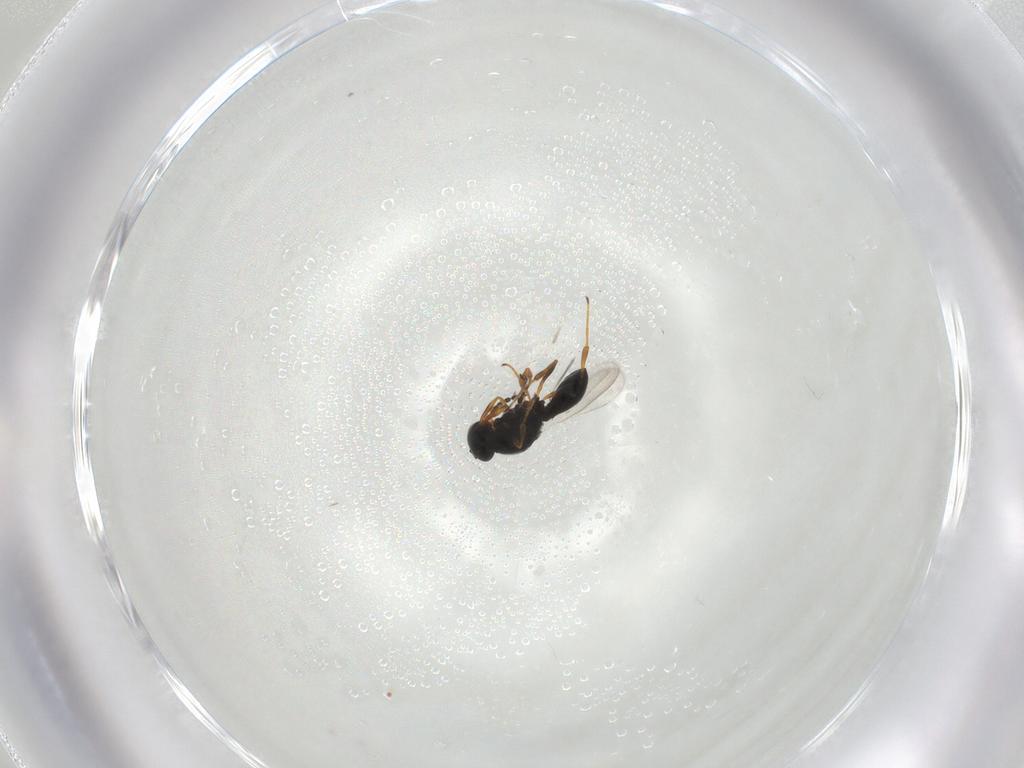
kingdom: Animalia
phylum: Arthropoda
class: Insecta
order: Hymenoptera
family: Platygastridae
